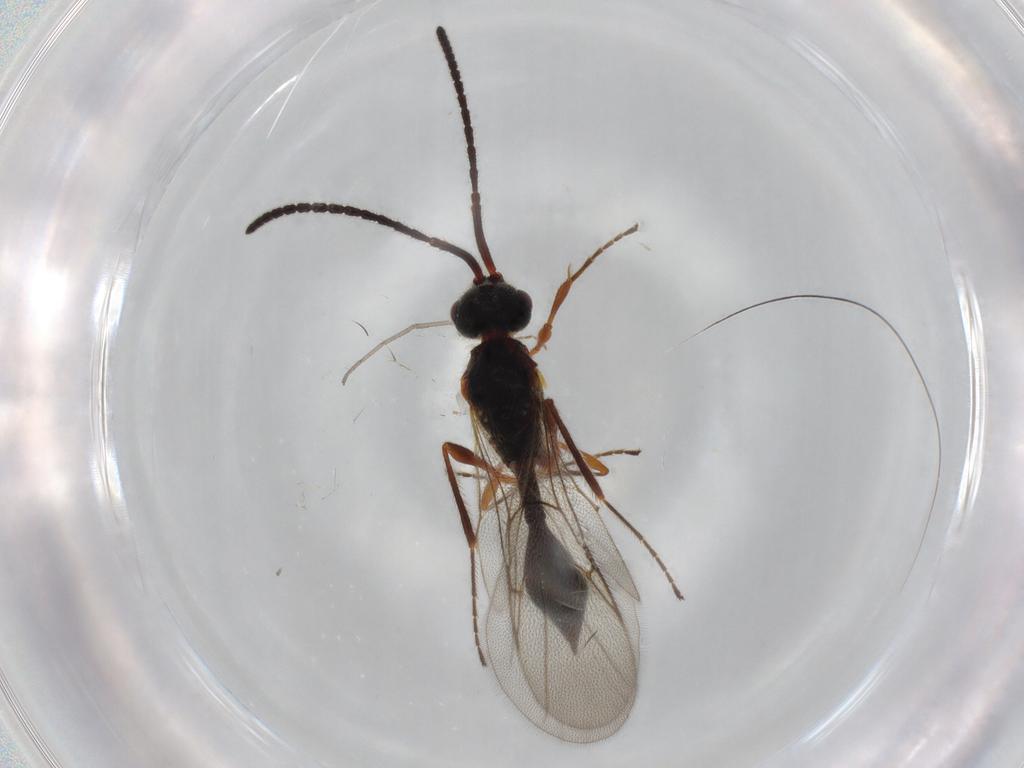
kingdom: Animalia
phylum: Arthropoda
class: Insecta
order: Hymenoptera
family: Diapriidae
